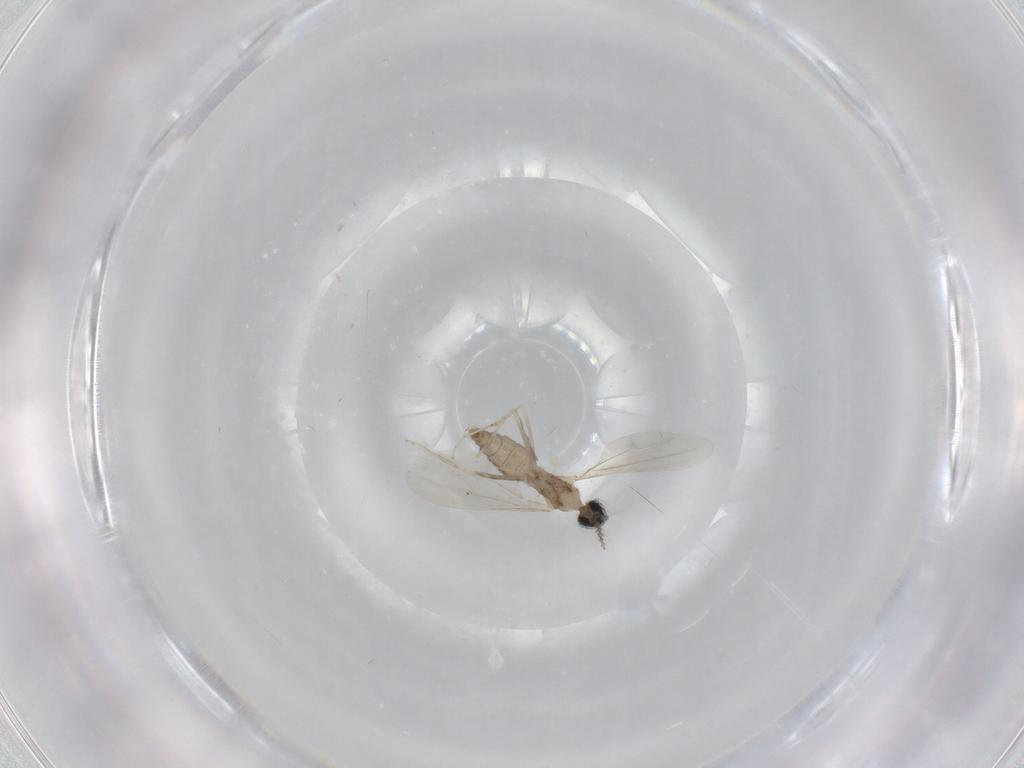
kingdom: Animalia
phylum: Arthropoda
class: Insecta
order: Diptera
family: Cecidomyiidae
